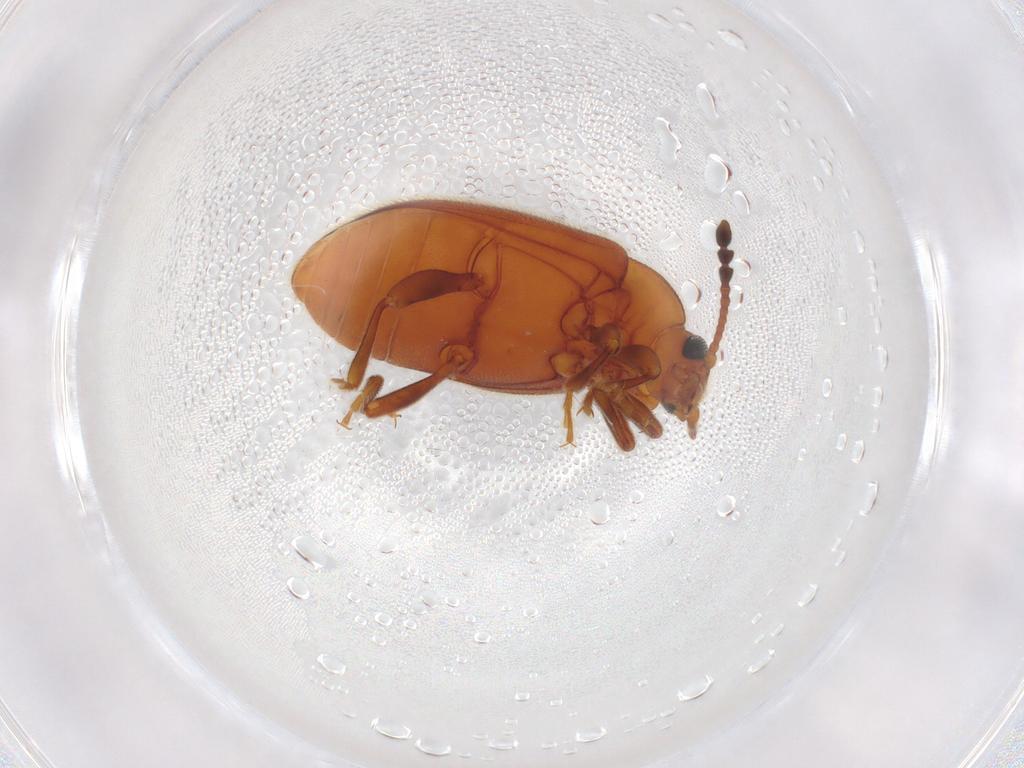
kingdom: Animalia
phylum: Arthropoda
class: Insecta
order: Coleoptera
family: Endomychidae
